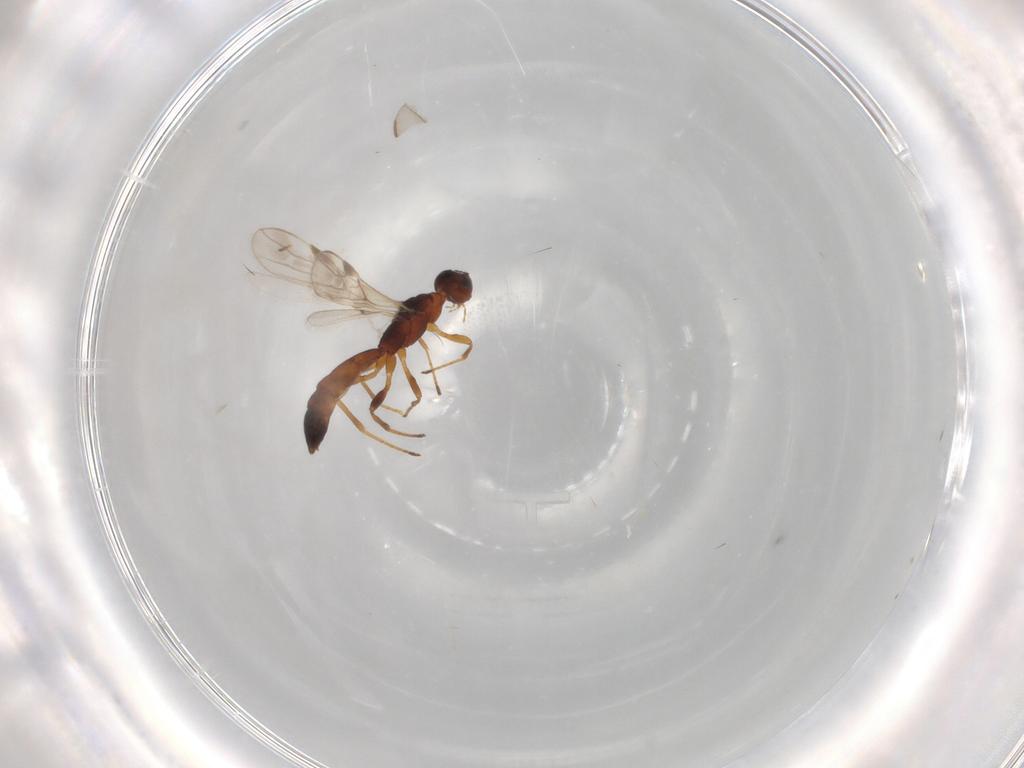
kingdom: Animalia
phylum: Arthropoda
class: Insecta
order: Hymenoptera
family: Braconidae
